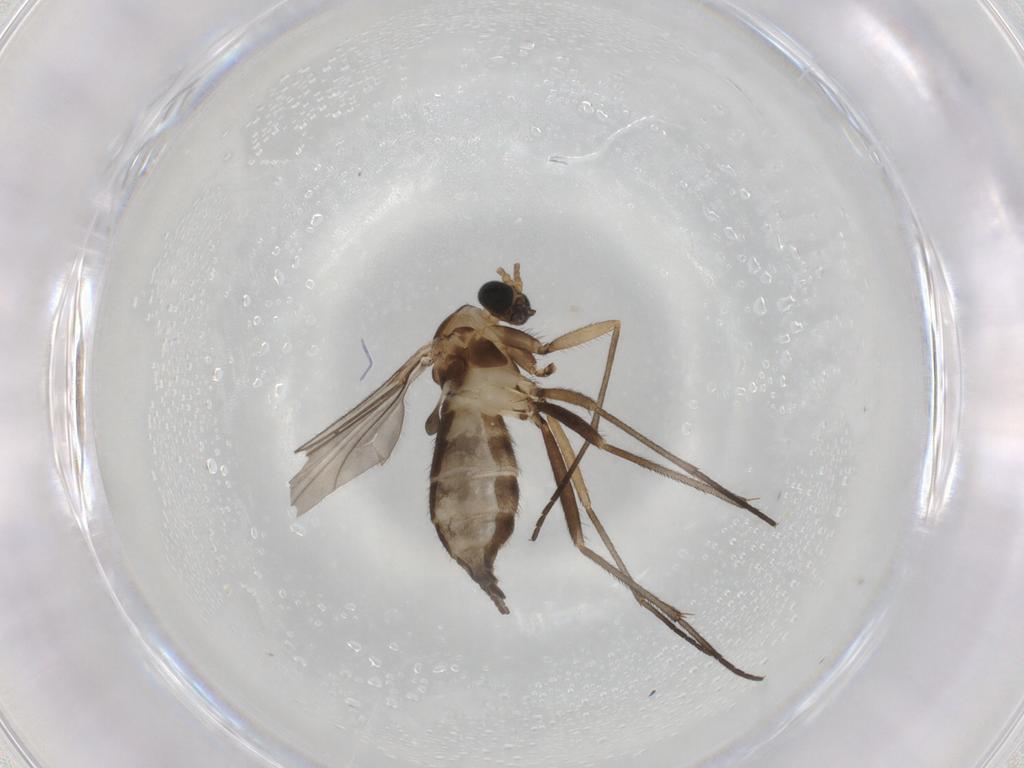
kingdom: Animalia
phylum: Arthropoda
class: Insecta
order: Diptera
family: Sciaridae
